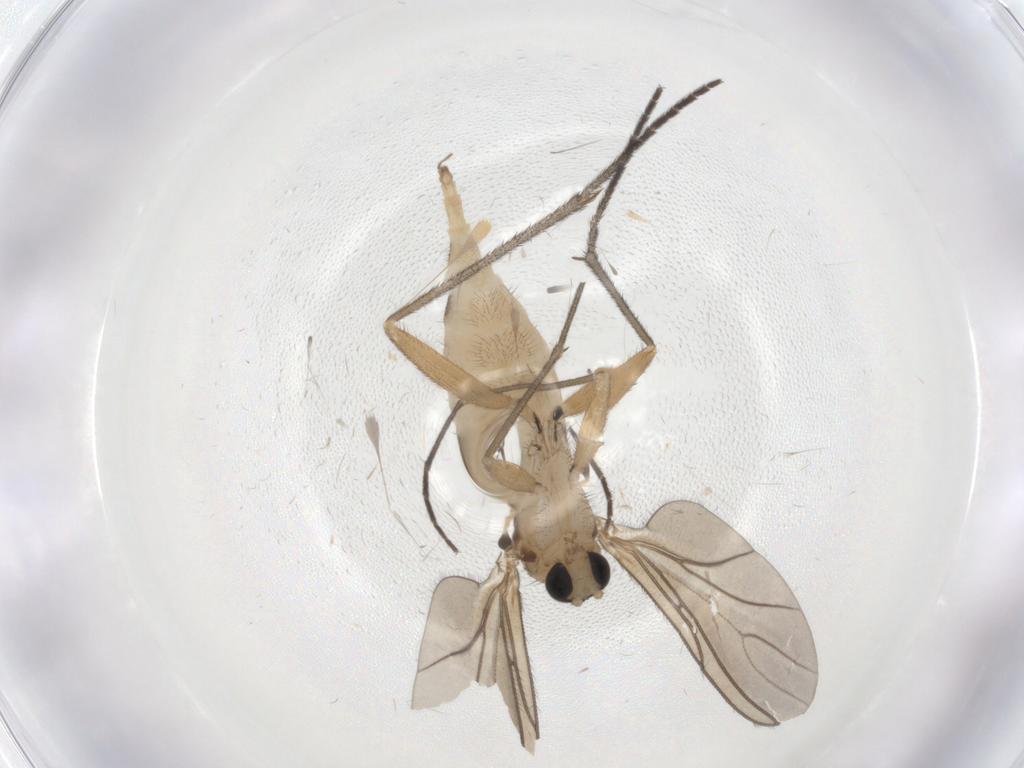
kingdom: Animalia
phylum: Arthropoda
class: Insecta
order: Diptera
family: Sciaridae
